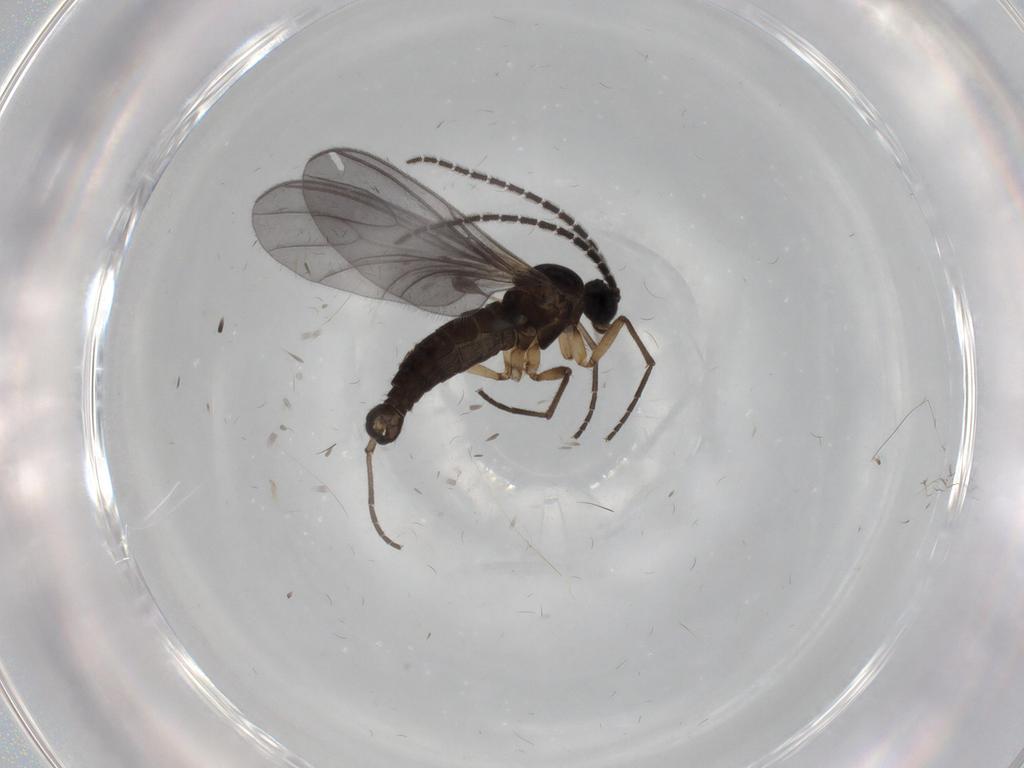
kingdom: Animalia
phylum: Arthropoda
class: Insecta
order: Diptera
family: Sciaridae
